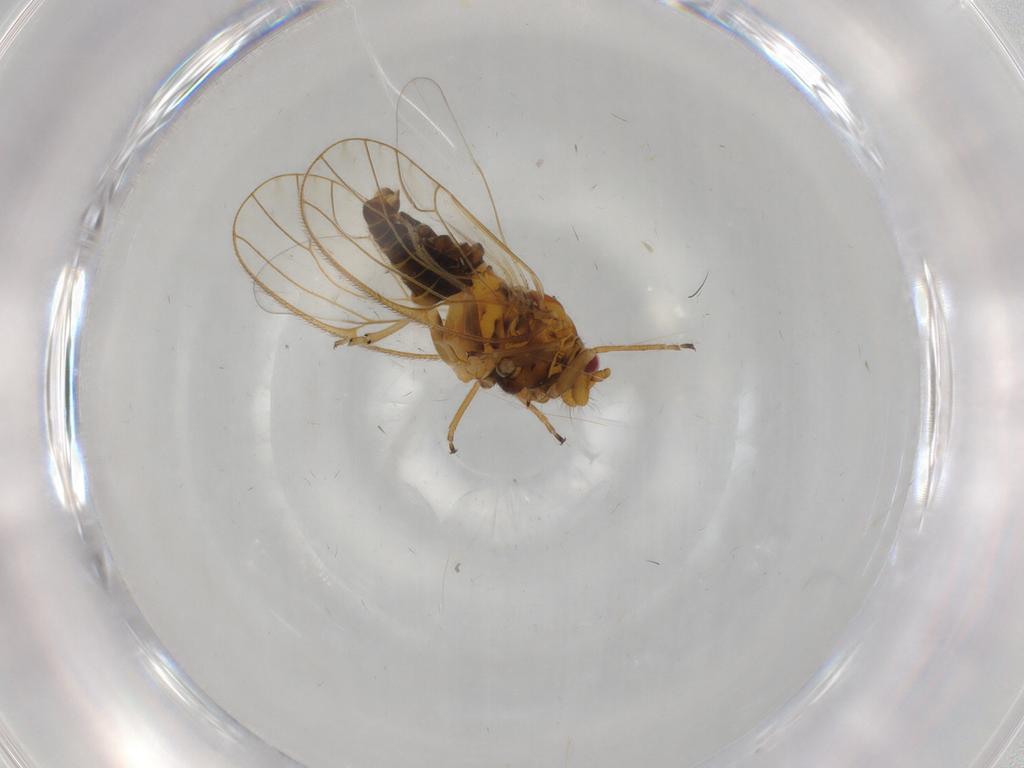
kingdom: Animalia
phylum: Arthropoda
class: Insecta
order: Hemiptera
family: Psyllidae
